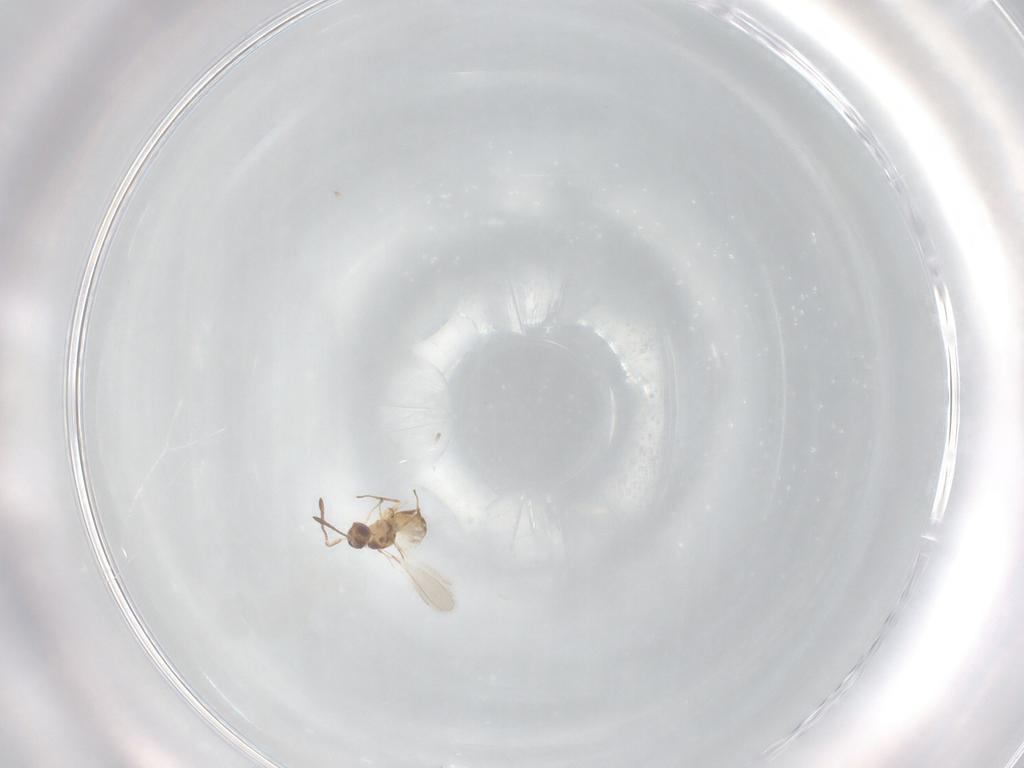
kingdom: Animalia
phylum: Arthropoda
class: Insecta
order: Hymenoptera
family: Mymaridae
